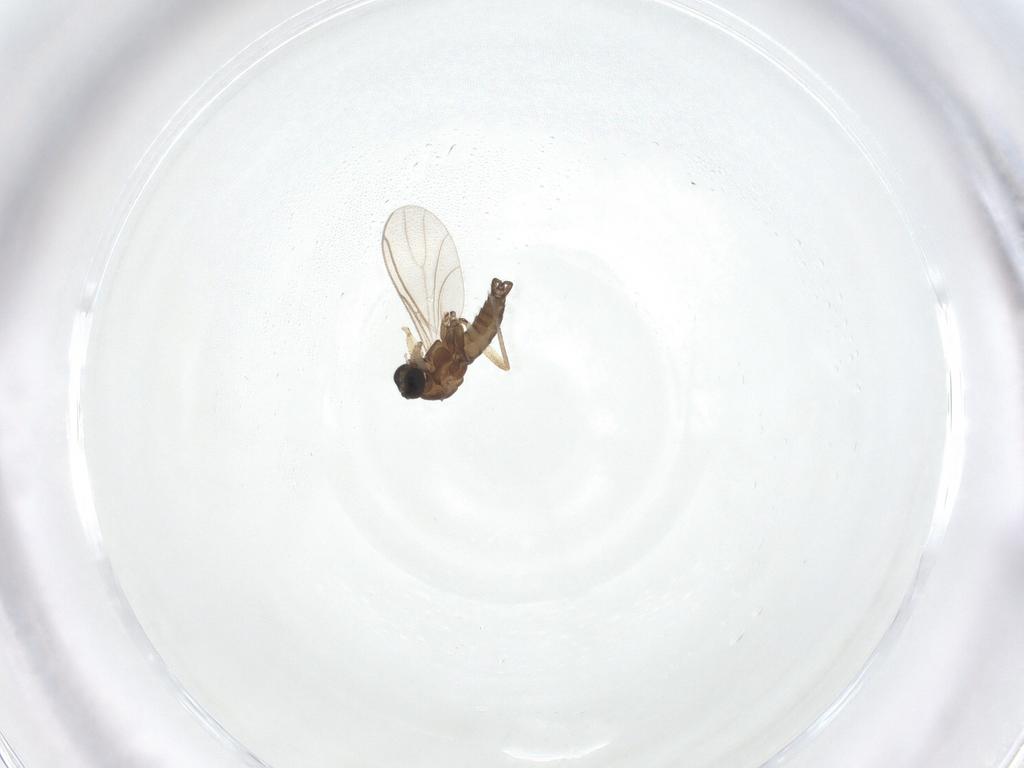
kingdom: Animalia
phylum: Arthropoda
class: Insecta
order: Diptera
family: Sciaridae
